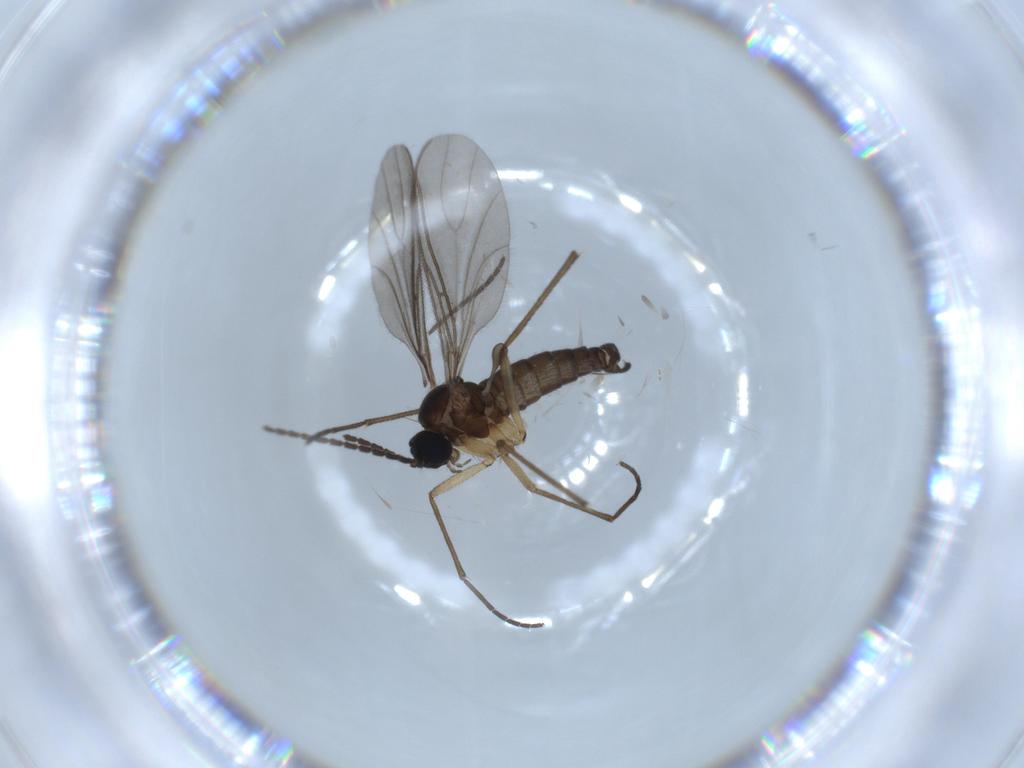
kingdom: Animalia
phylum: Arthropoda
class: Insecta
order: Diptera
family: Sciaridae
